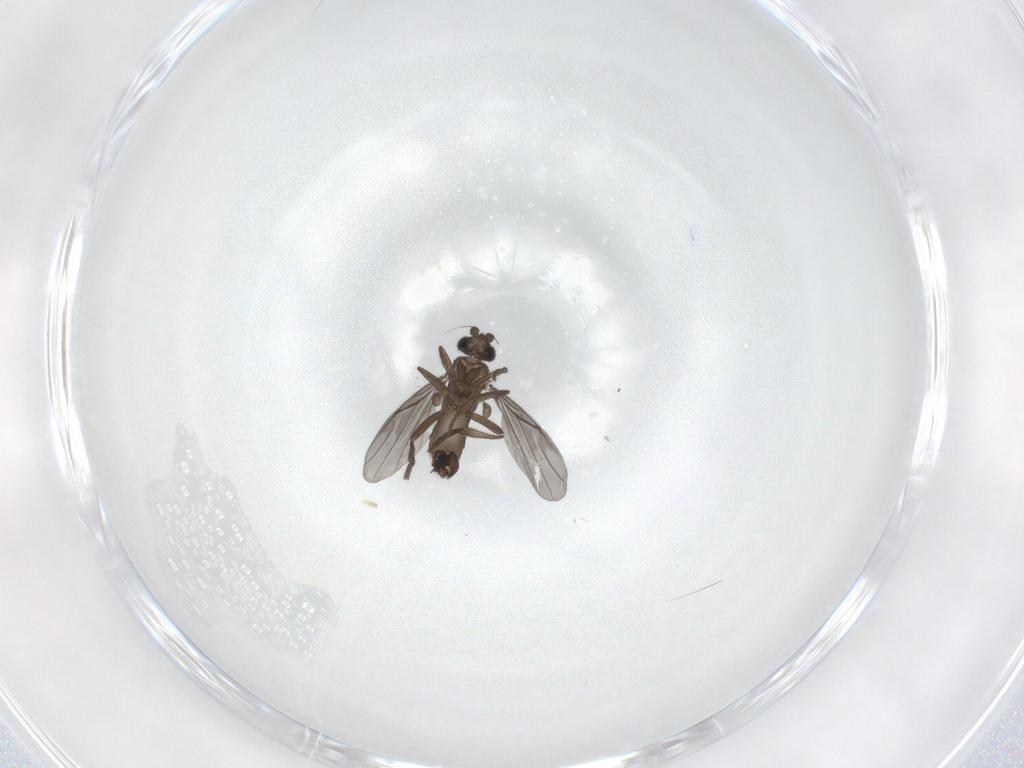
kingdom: Animalia
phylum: Arthropoda
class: Insecta
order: Diptera
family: Phoridae
